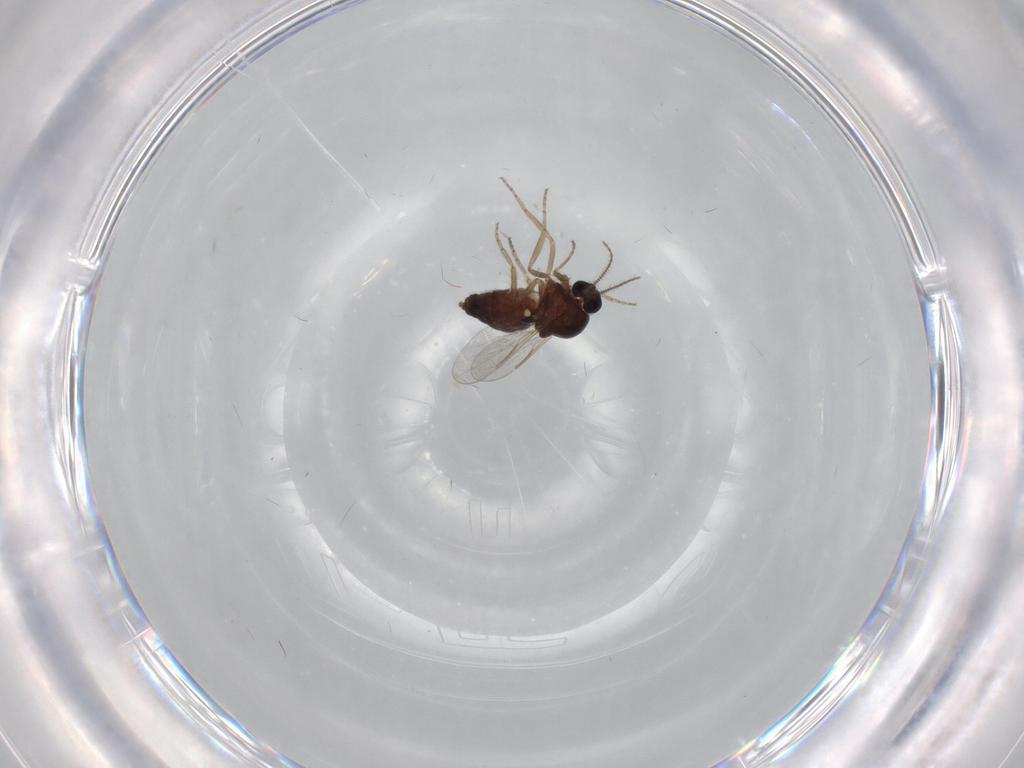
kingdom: Animalia
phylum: Arthropoda
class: Insecta
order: Diptera
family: Ceratopogonidae
